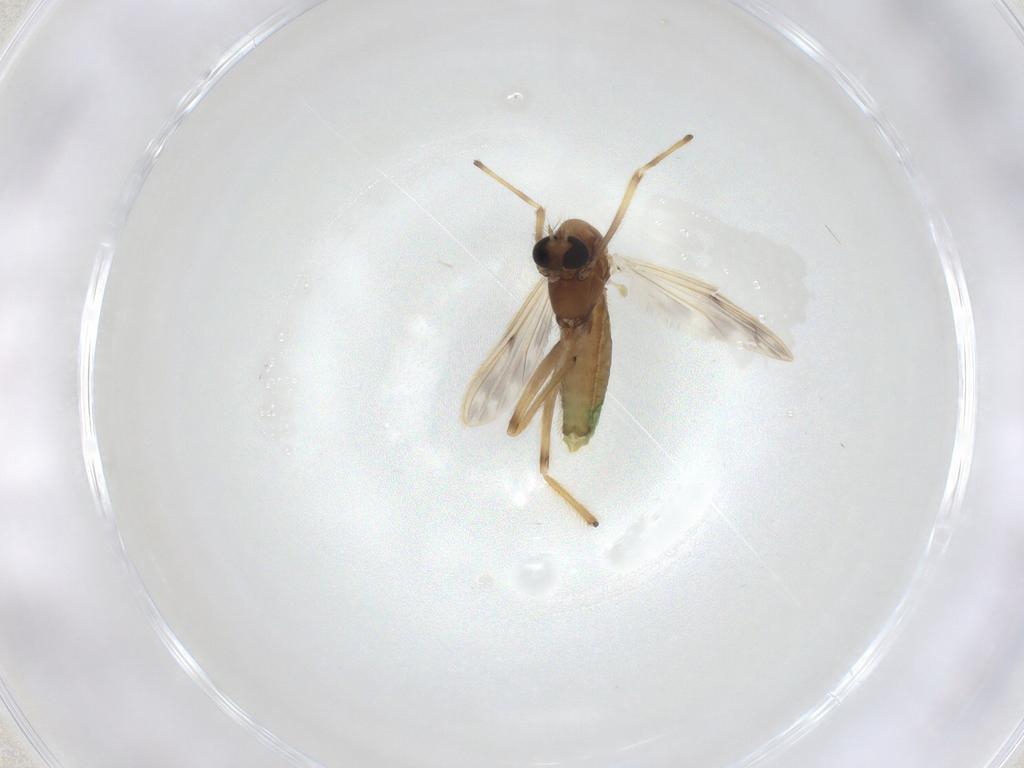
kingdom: Animalia
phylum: Arthropoda
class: Insecta
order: Diptera
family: Chironomidae
